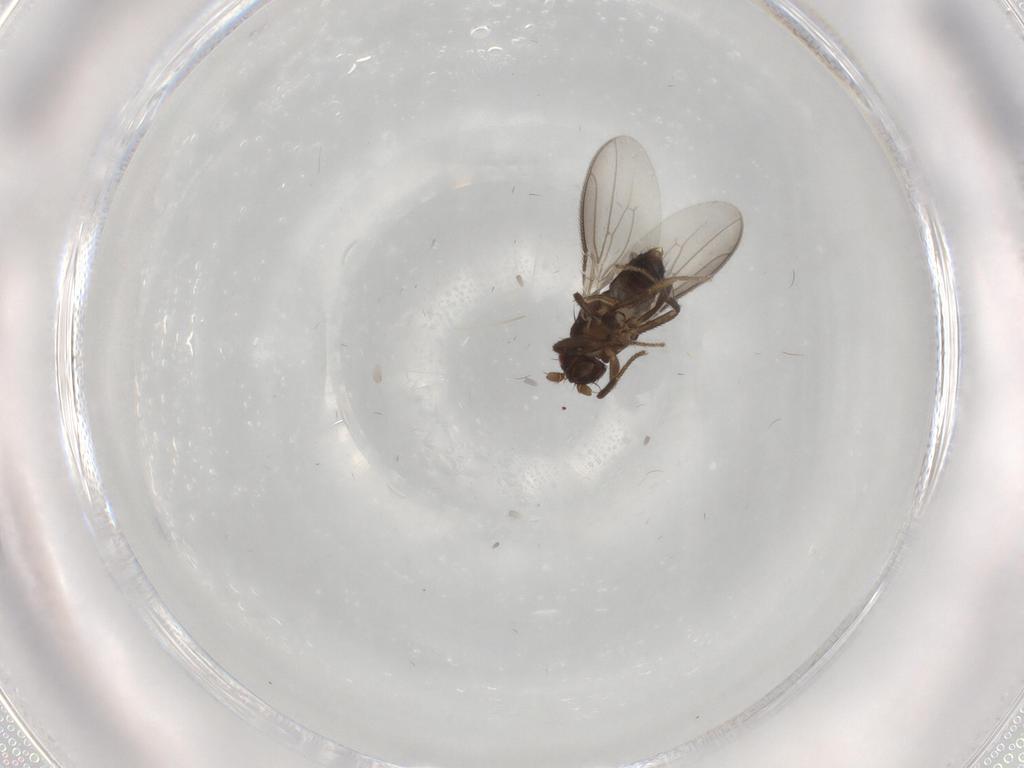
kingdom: Animalia
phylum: Arthropoda
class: Insecta
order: Diptera
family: Sphaeroceridae
